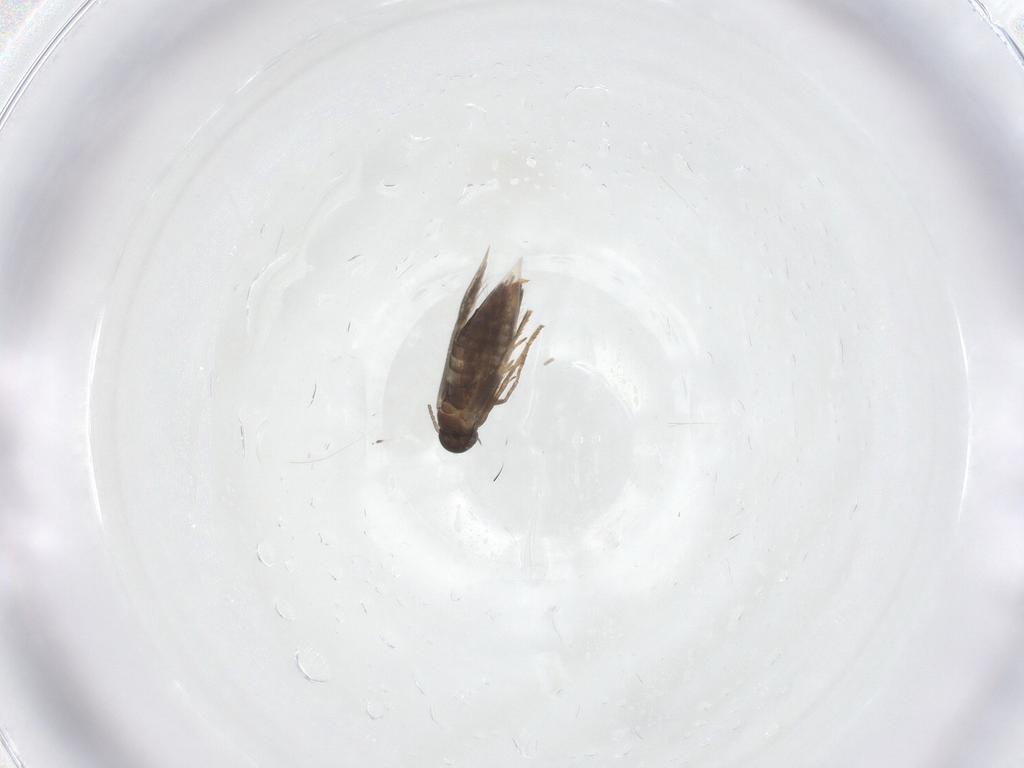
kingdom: Animalia
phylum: Arthropoda
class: Insecta
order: Lepidoptera
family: Heliozelidae
